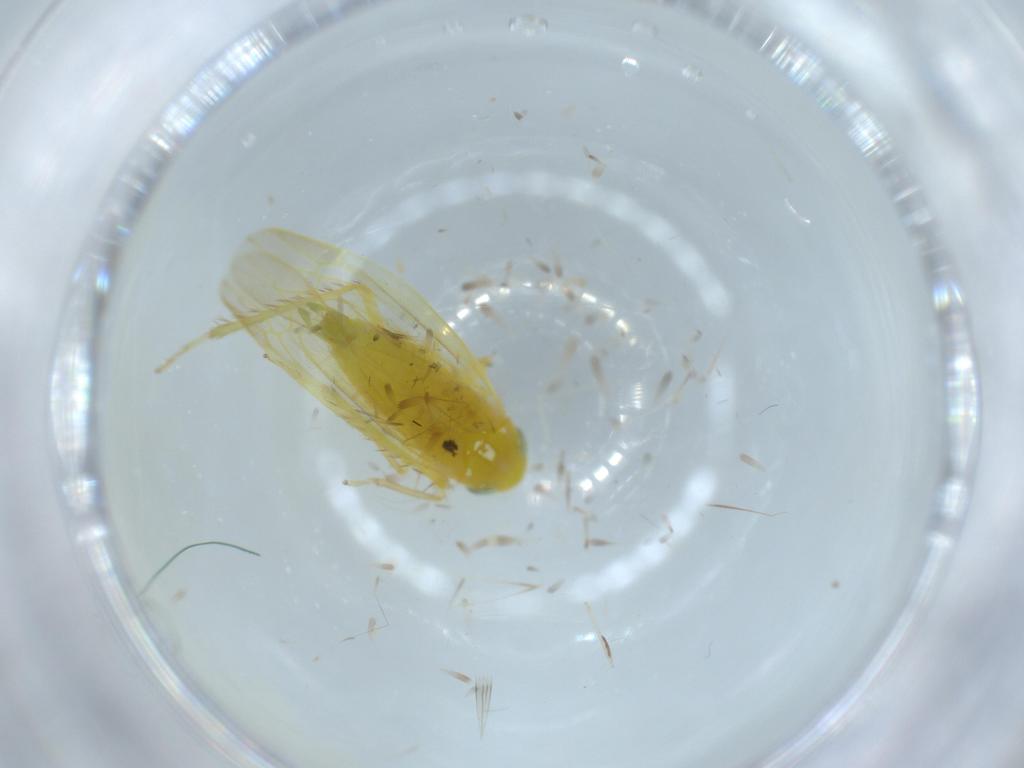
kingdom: Animalia
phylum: Arthropoda
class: Insecta
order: Hemiptera
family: Cicadellidae
